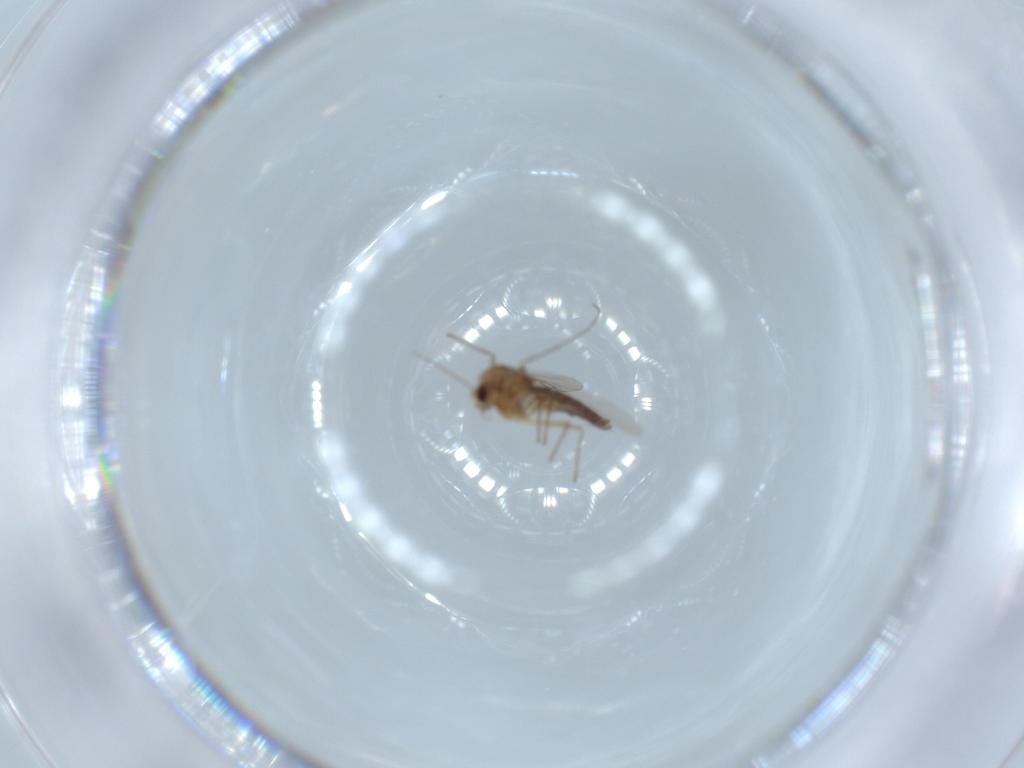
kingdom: Animalia
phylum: Arthropoda
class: Insecta
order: Diptera
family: Chironomidae
